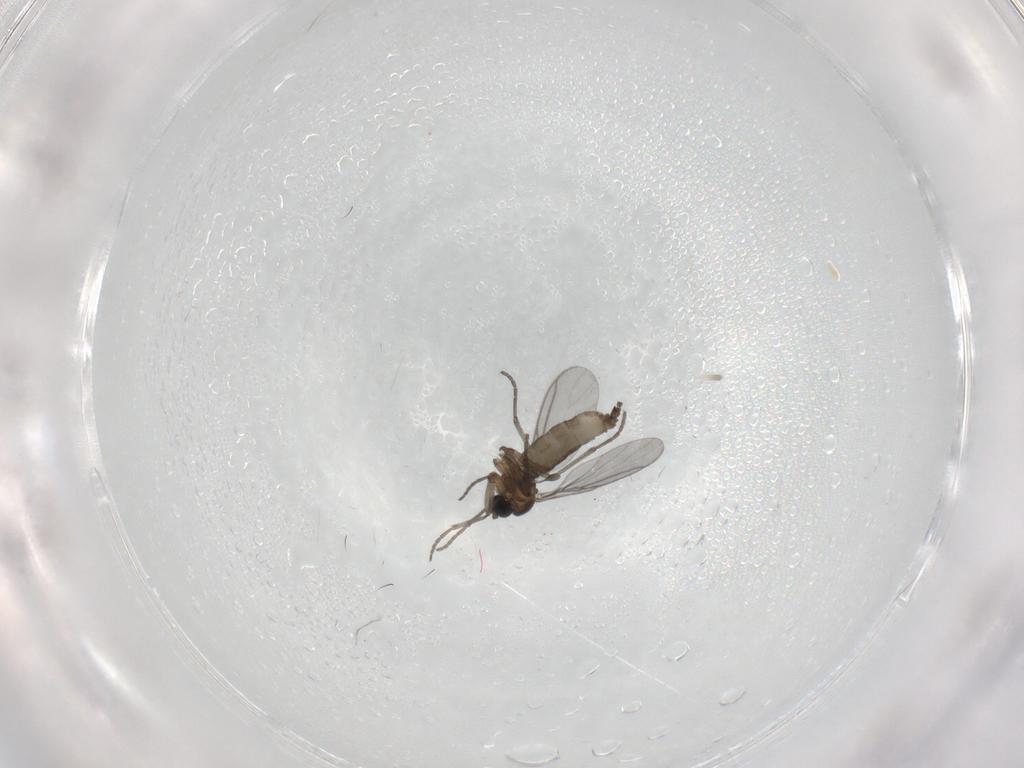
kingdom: Animalia
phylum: Arthropoda
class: Insecta
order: Diptera
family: Sciaridae
